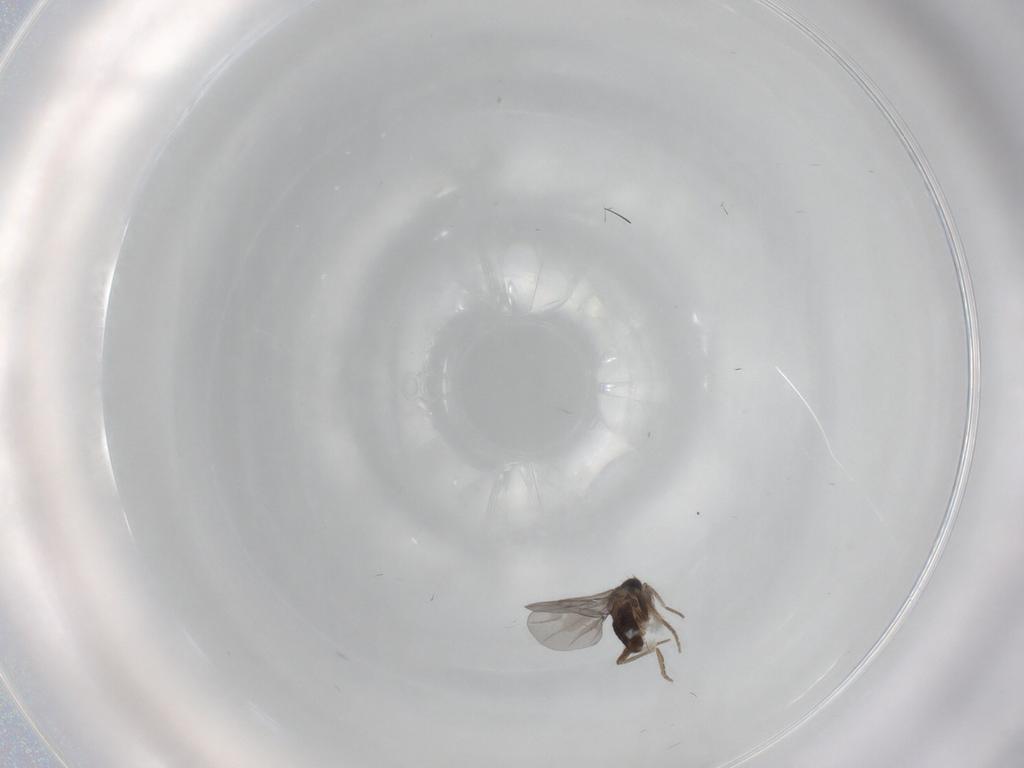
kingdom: Animalia
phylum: Arthropoda
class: Insecta
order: Diptera
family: Drosophilidae
